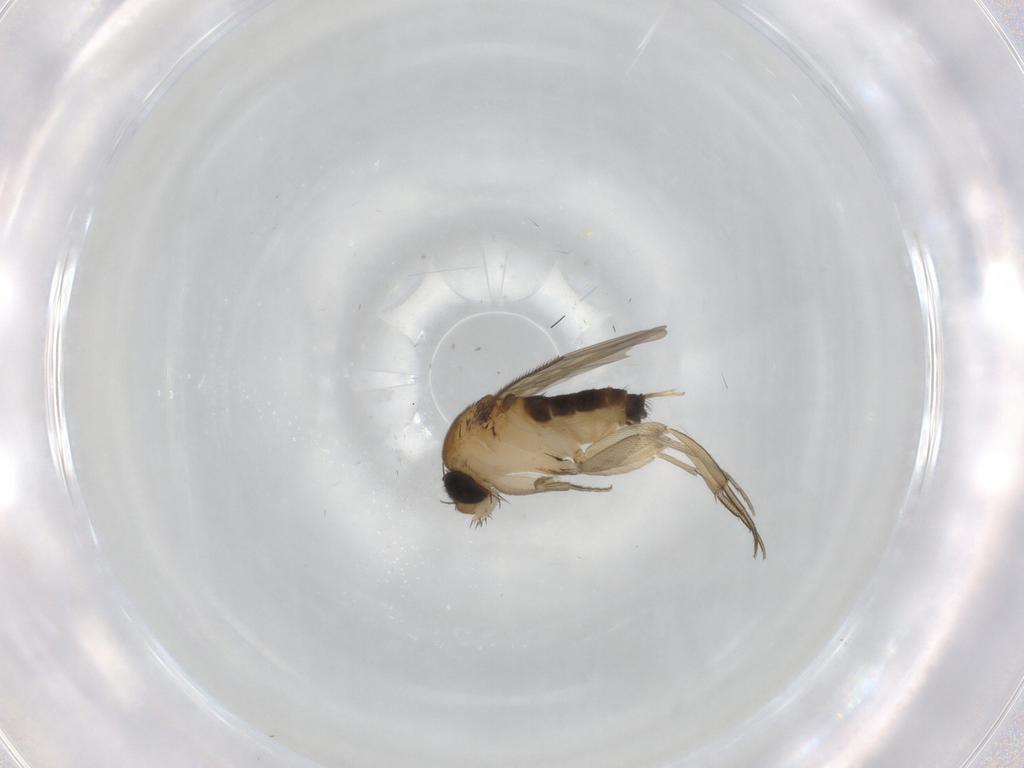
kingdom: Animalia
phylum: Arthropoda
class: Insecta
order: Diptera
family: Phoridae
